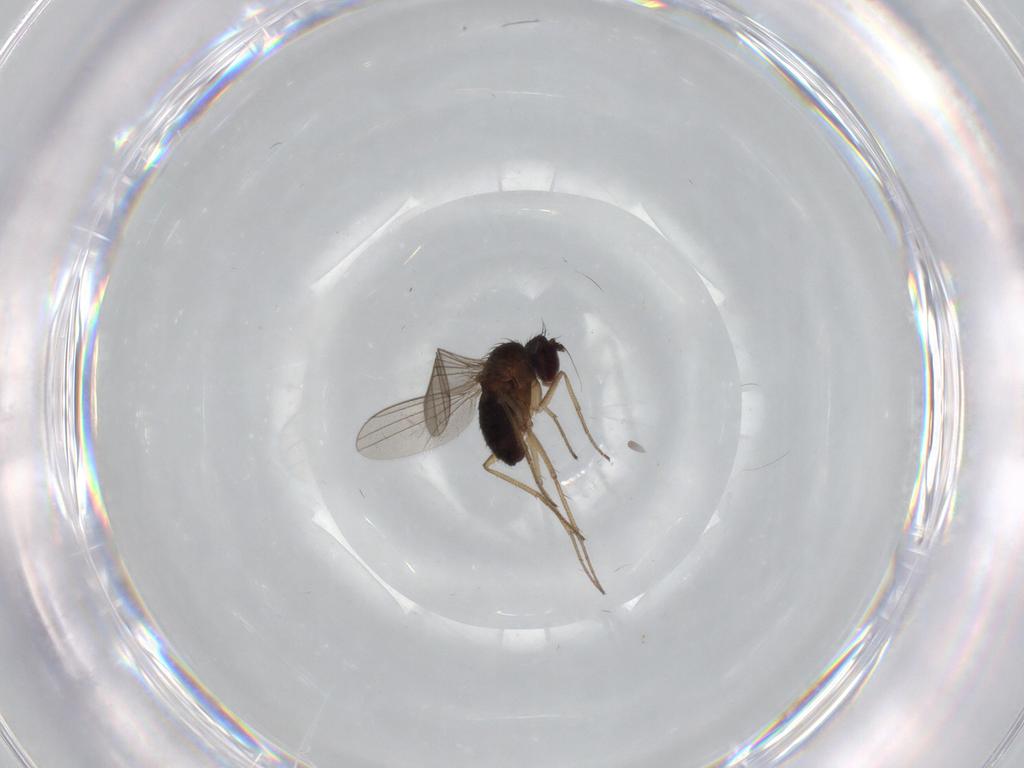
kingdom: Animalia
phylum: Arthropoda
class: Insecta
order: Diptera
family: Dolichopodidae
